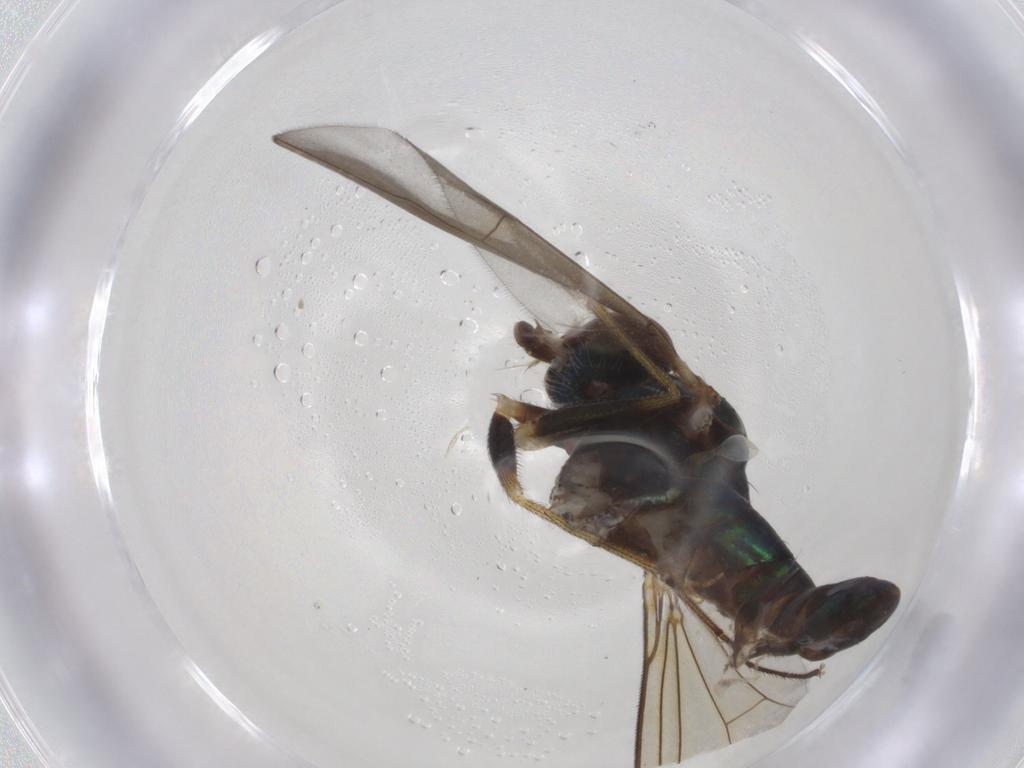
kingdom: Animalia
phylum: Arthropoda
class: Insecta
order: Diptera
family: Dolichopodidae
